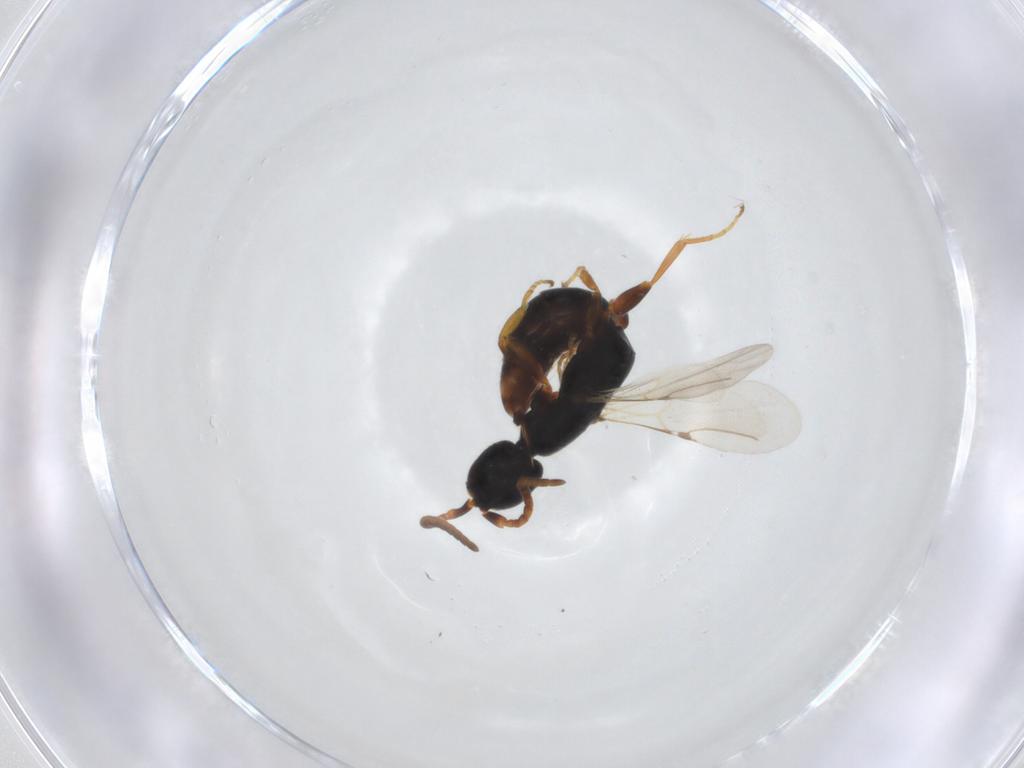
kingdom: Animalia
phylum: Arthropoda
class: Insecta
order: Hymenoptera
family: Bethylidae
